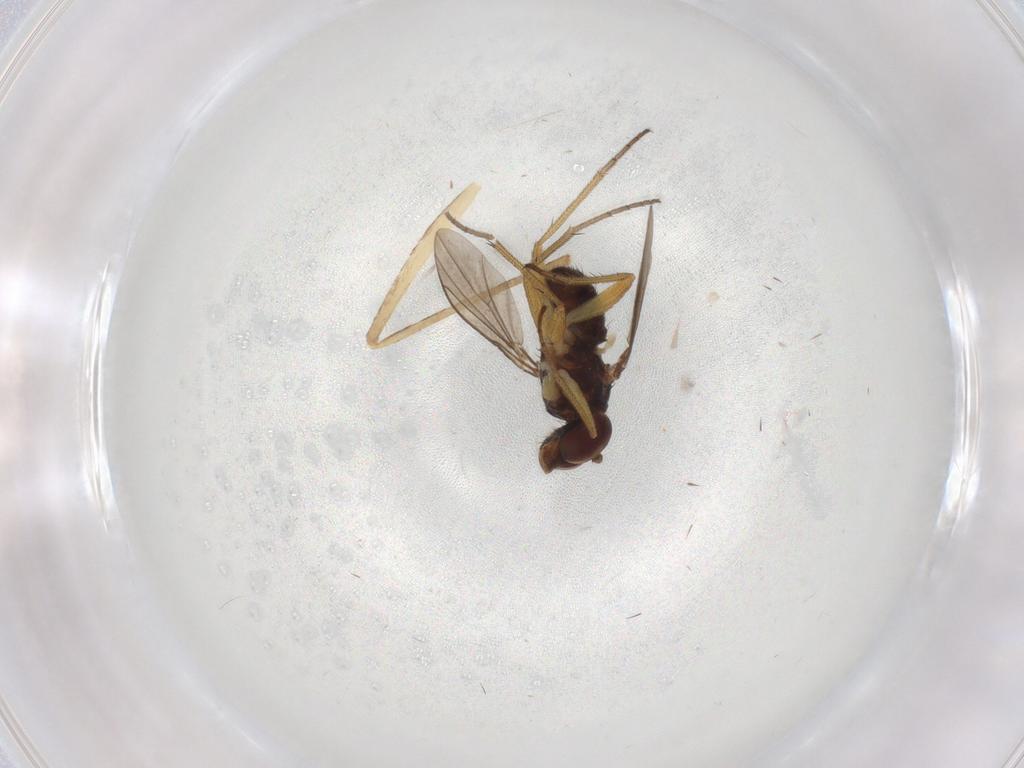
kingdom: Animalia
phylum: Arthropoda
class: Insecta
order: Diptera
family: Dolichopodidae
